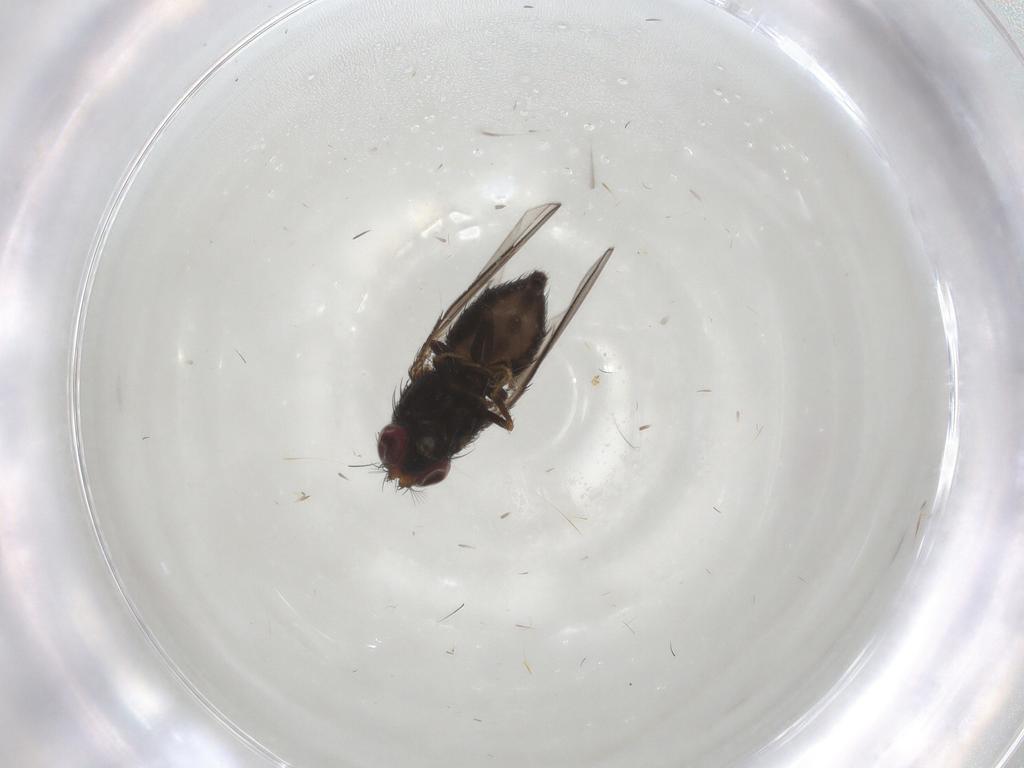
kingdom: Animalia
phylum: Arthropoda
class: Insecta
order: Diptera
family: Ephydridae
